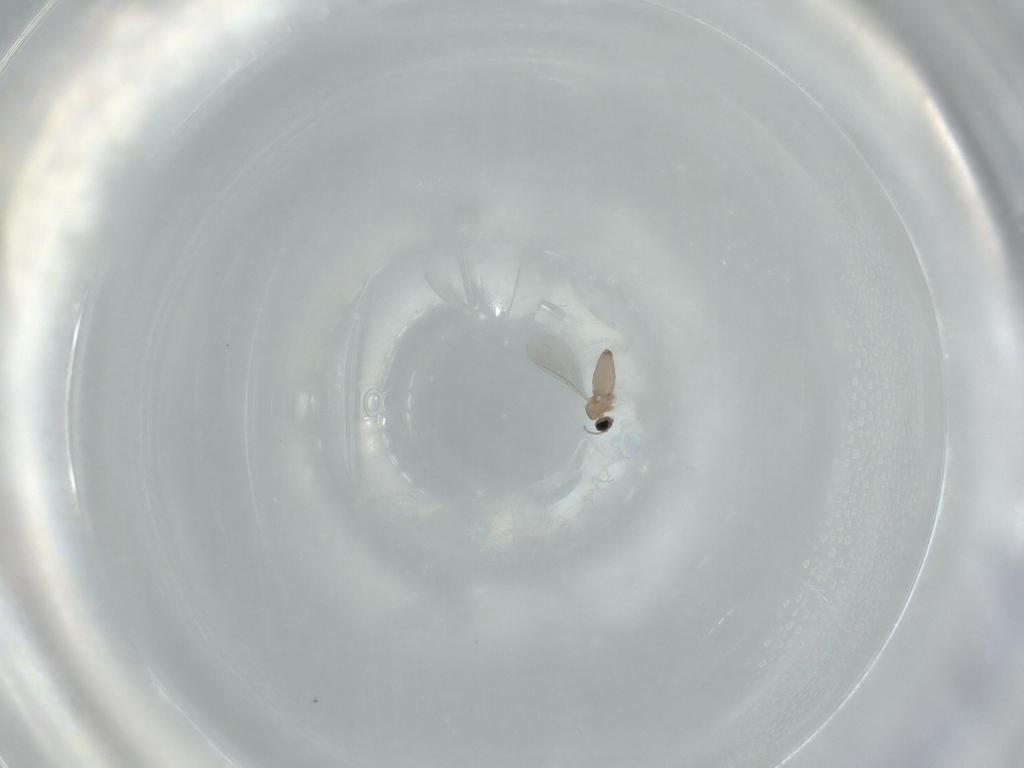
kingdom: Animalia
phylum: Arthropoda
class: Insecta
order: Diptera
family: Cecidomyiidae
